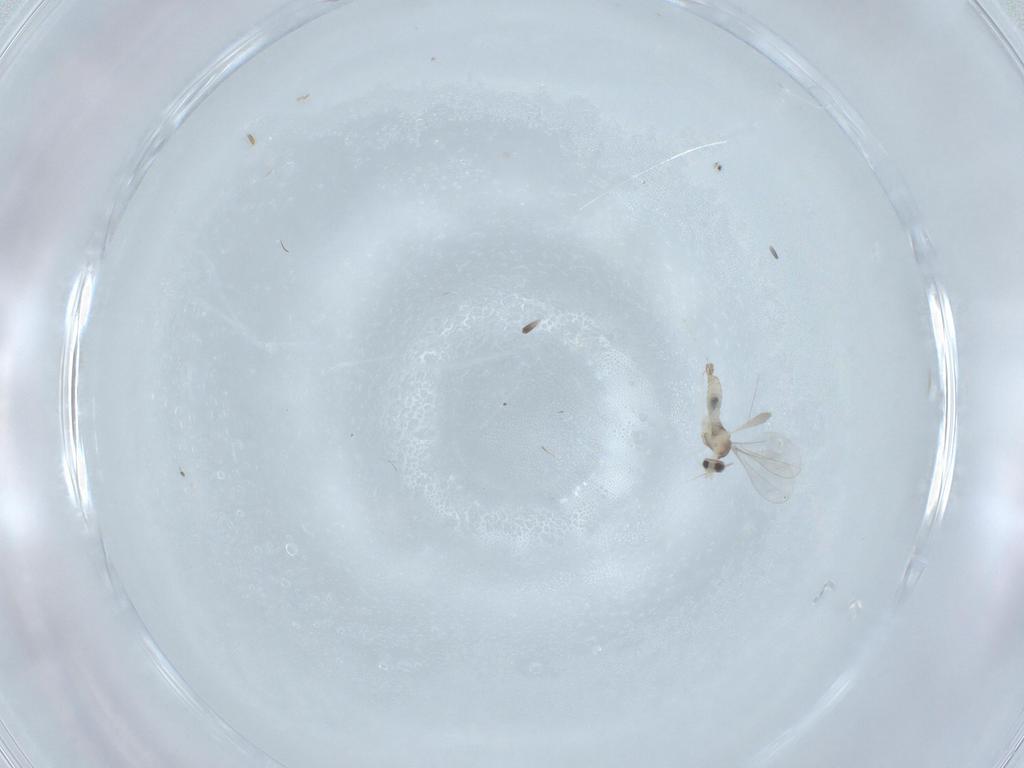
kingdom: Animalia
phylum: Arthropoda
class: Insecta
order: Diptera
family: Cecidomyiidae
